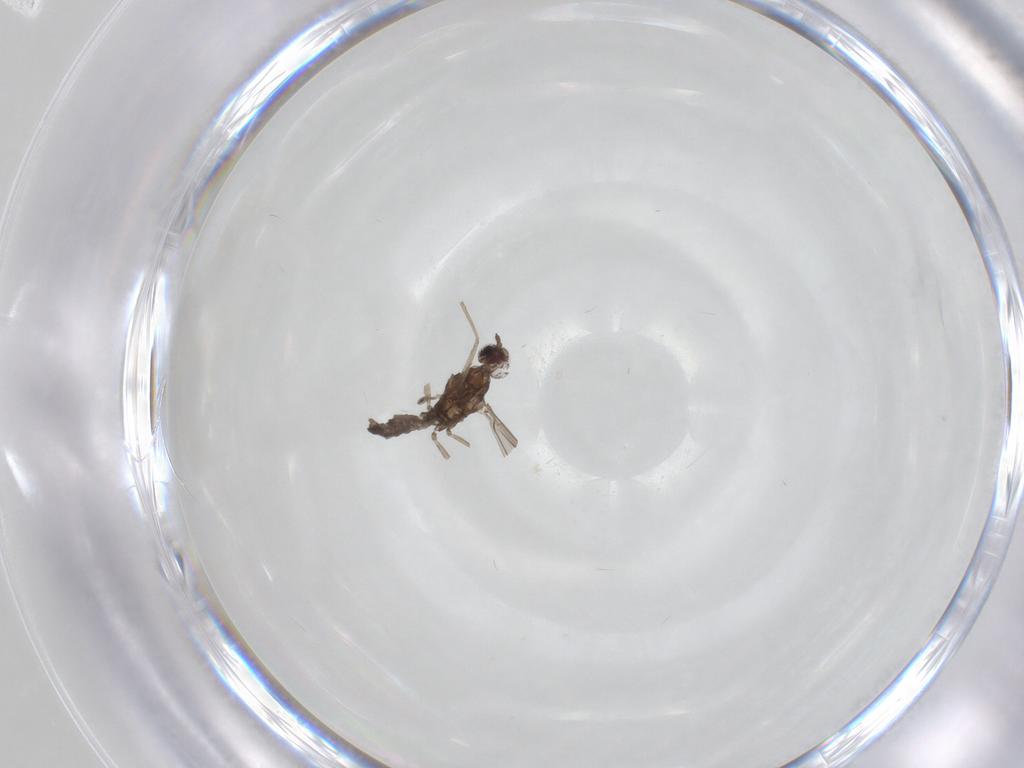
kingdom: Animalia
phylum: Arthropoda
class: Insecta
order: Diptera
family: Cecidomyiidae
